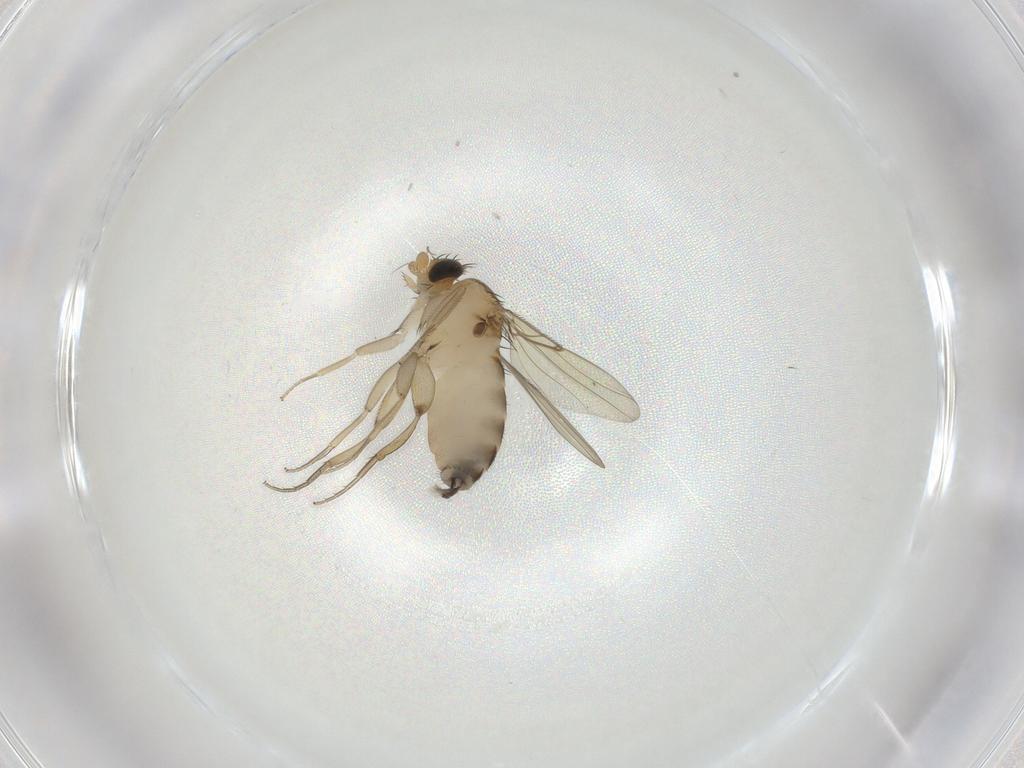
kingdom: Animalia
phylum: Arthropoda
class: Insecta
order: Diptera
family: Phoridae
